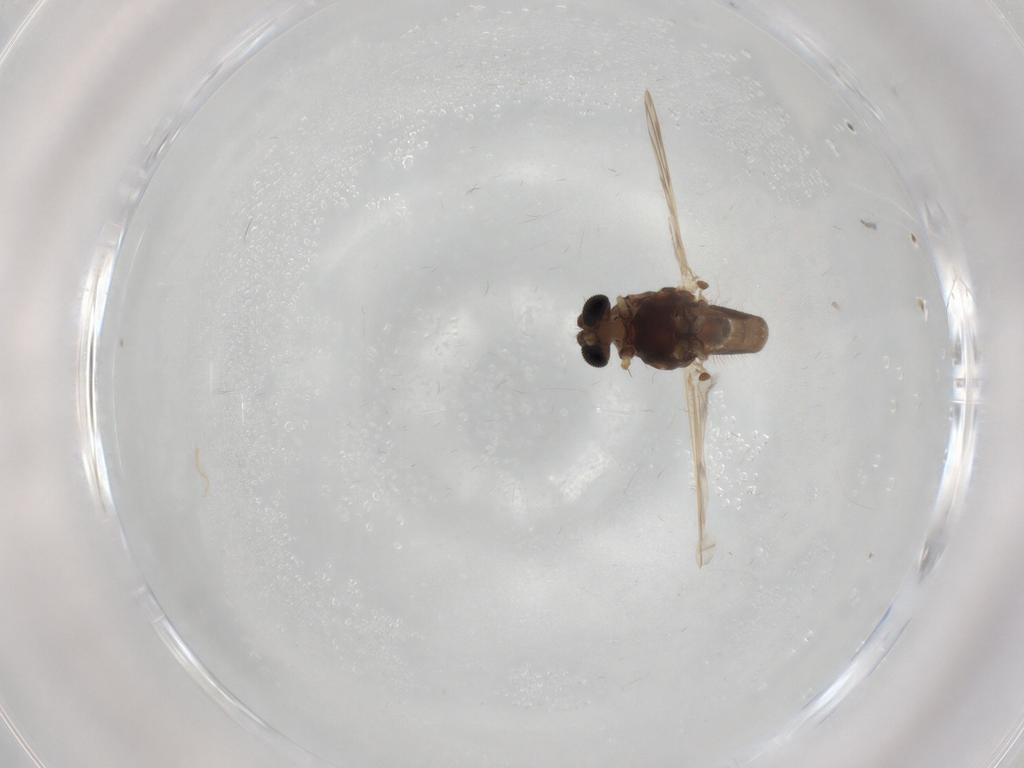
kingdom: Animalia
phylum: Arthropoda
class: Insecta
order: Diptera
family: Chironomidae
